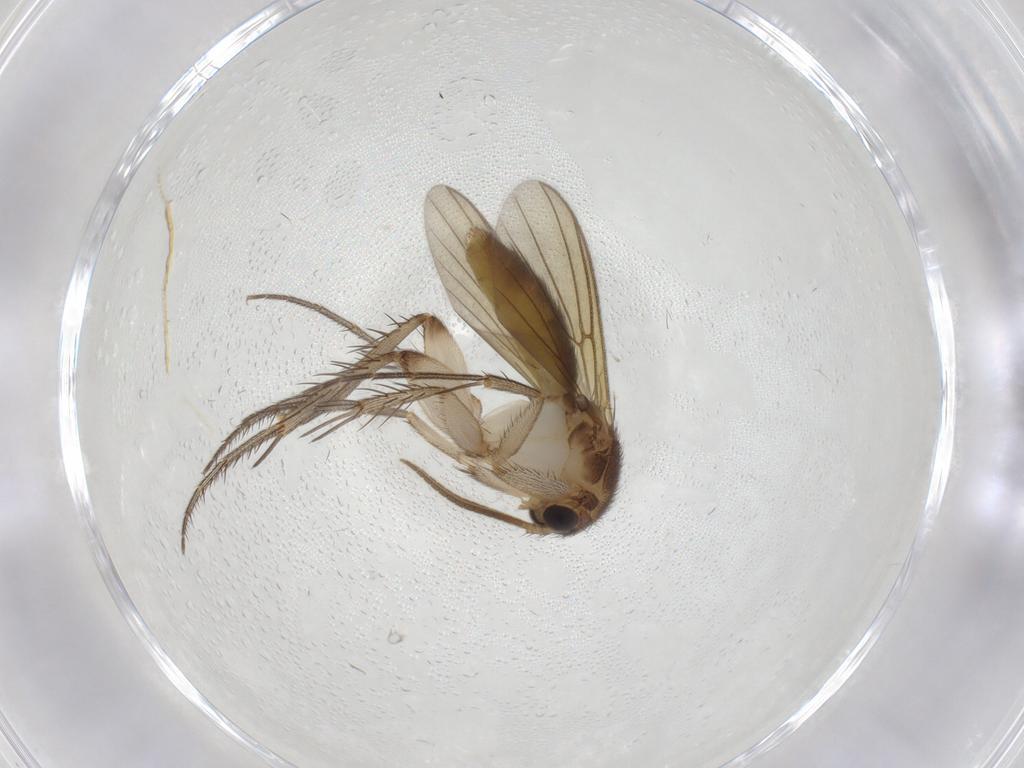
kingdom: Animalia
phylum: Arthropoda
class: Insecta
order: Diptera
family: Mycetophilidae
